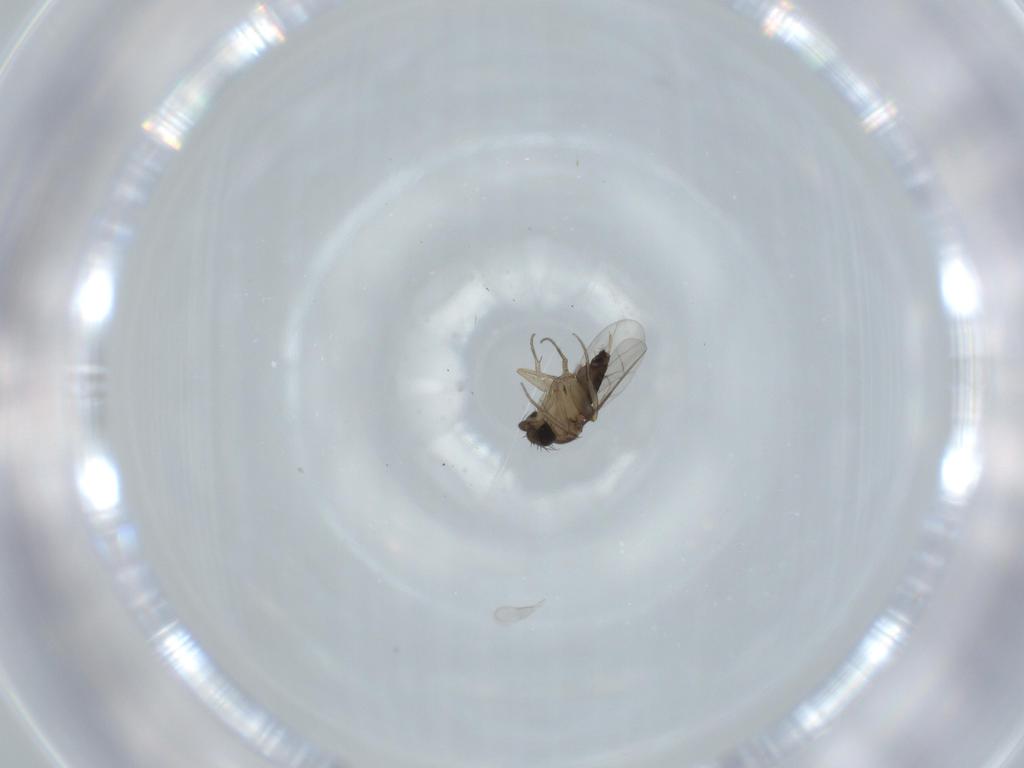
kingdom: Animalia
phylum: Arthropoda
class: Insecta
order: Diptera
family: Phoridae
